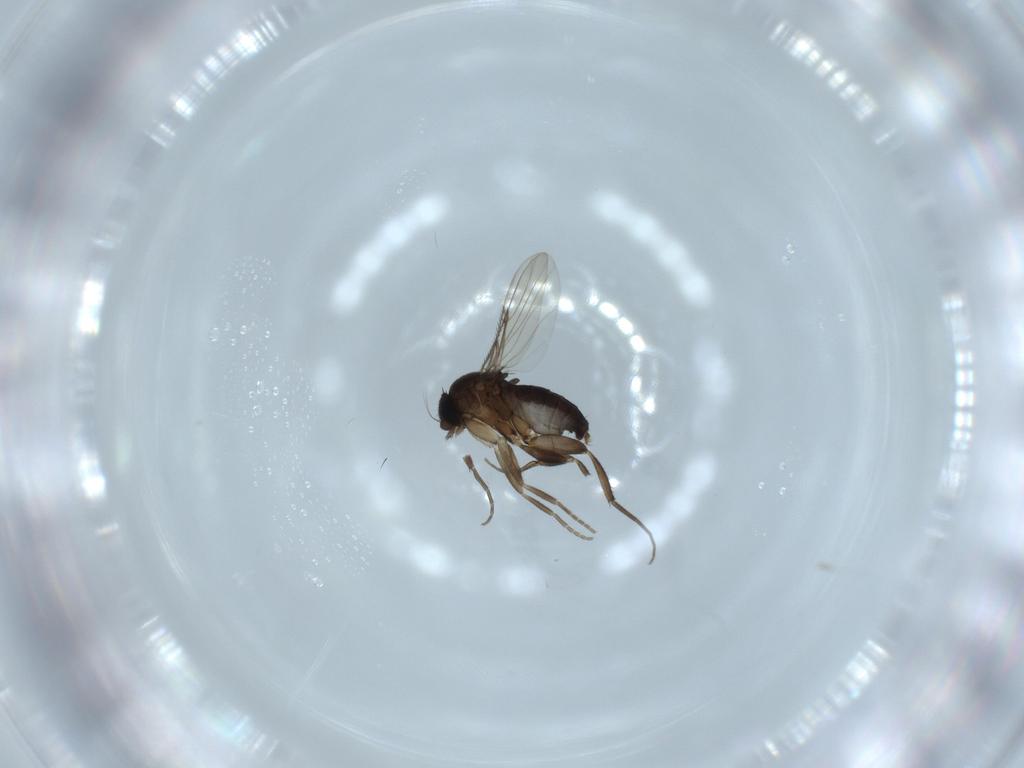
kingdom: Animalia
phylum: Arthropoda
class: Insecta
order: Diptera
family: Phoridae
